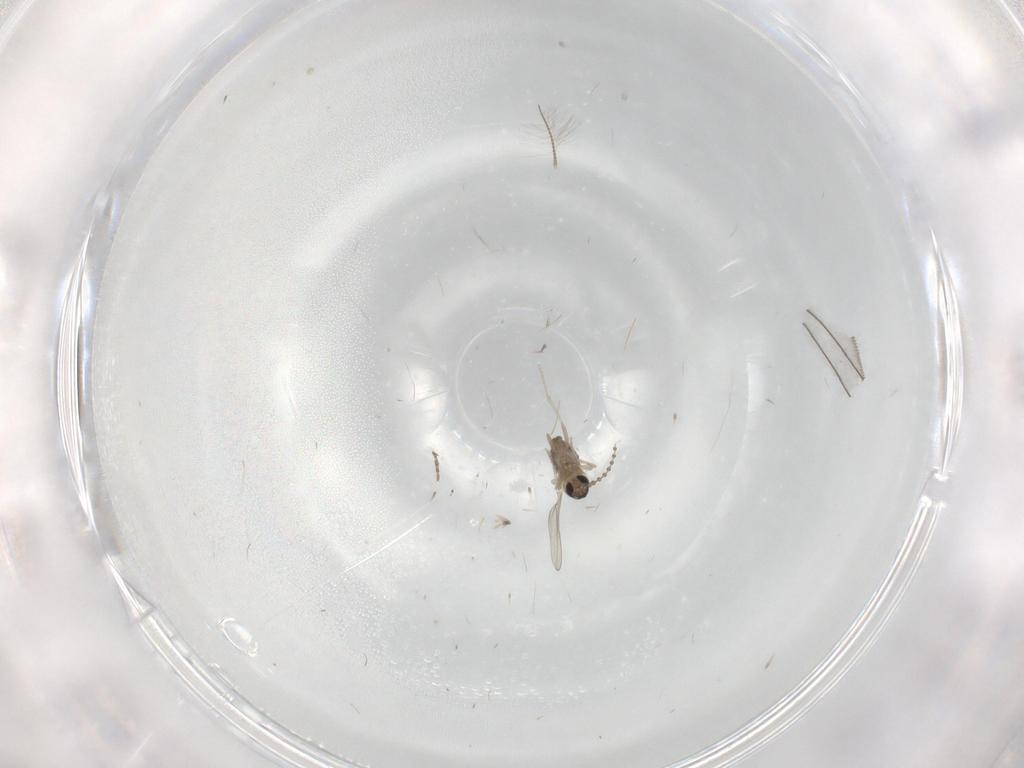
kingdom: Animalia
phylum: Arthropoda
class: Insecta
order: Diptera
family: Cecidomyiidae
